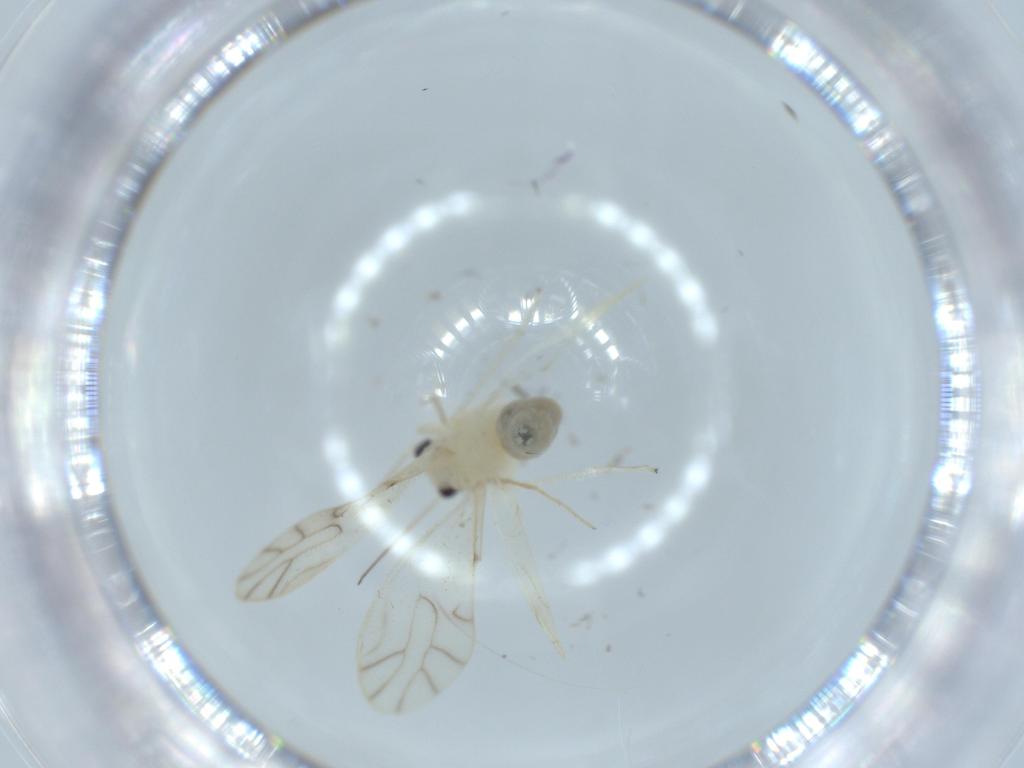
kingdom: Animalia
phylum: Arthropoda
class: Insecta
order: Psocodea
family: Caeciliusidae
